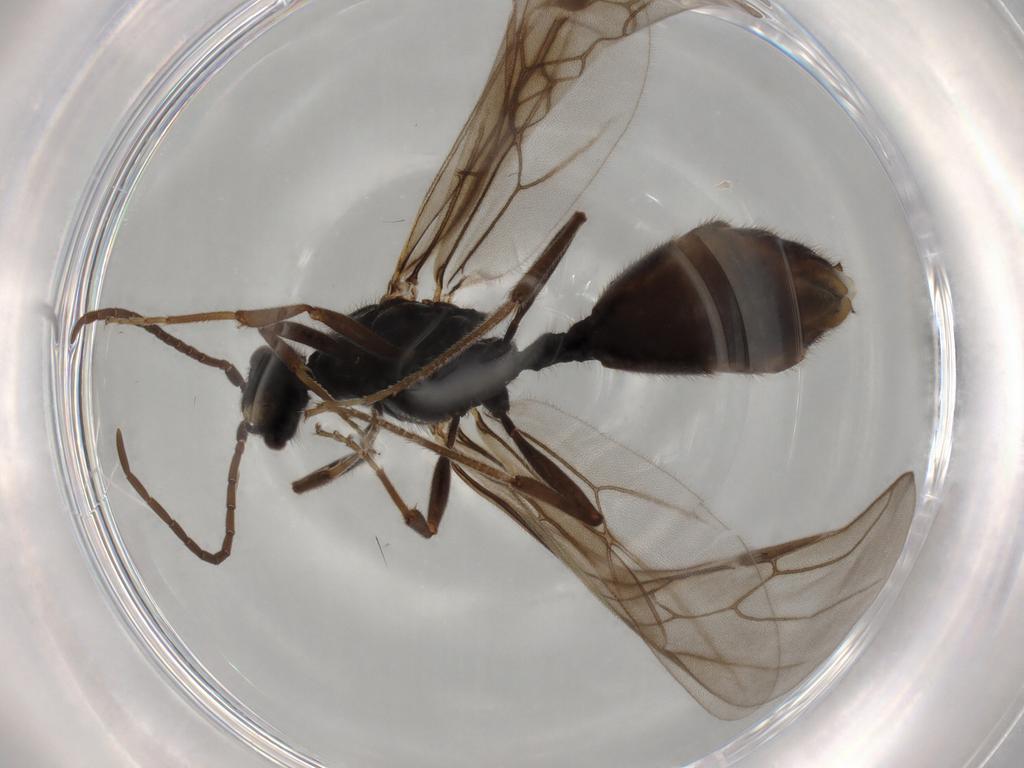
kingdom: Animalia
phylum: Arthropoda
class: Insecta
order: Hymenoptera
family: Formicidae
